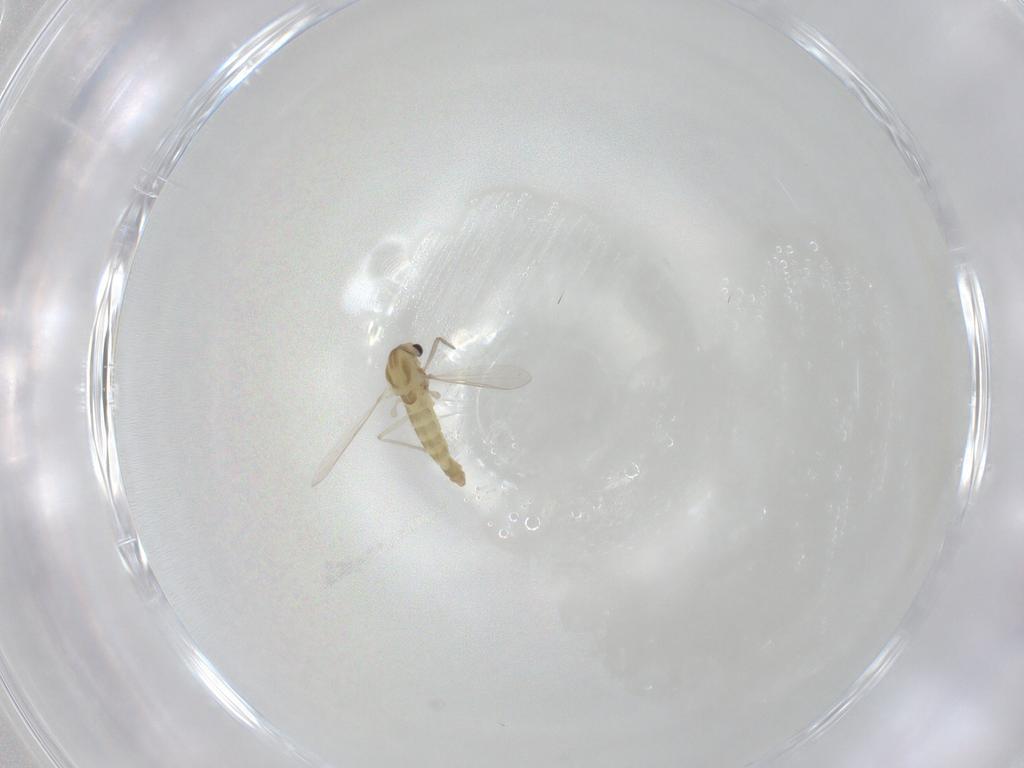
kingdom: Animalia
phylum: Arthropoda
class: Insecta
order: Diptera
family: Chironomidae
